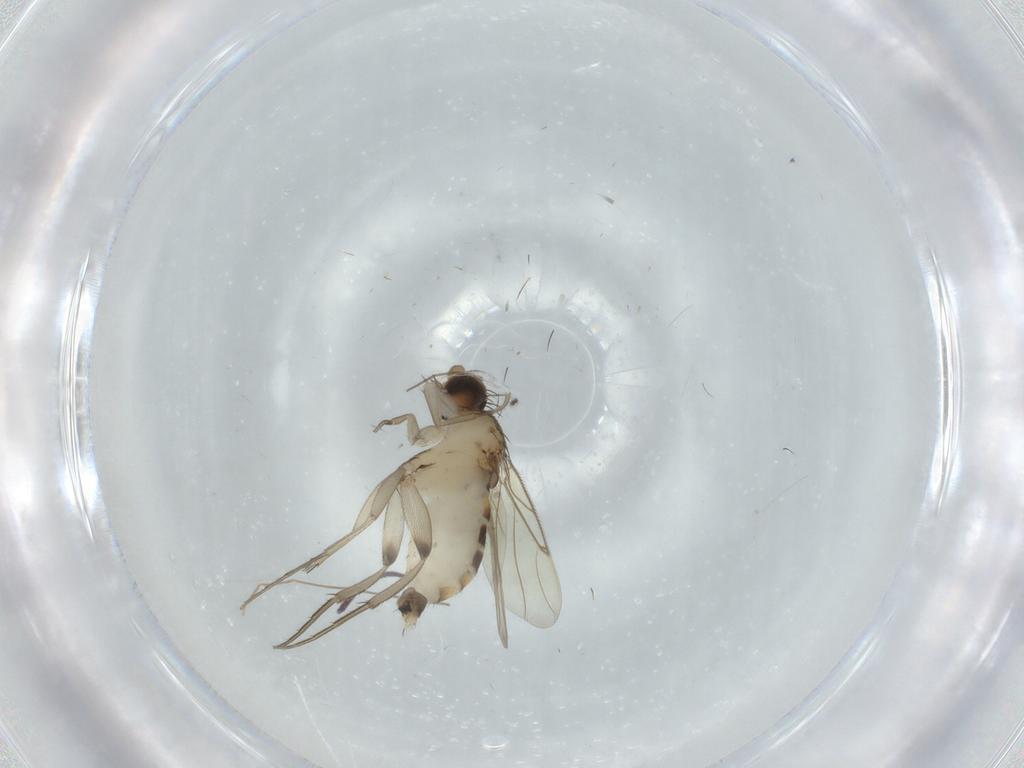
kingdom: Animalia
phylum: Arthropoda
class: Insecta
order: Diptera
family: Phoridae
